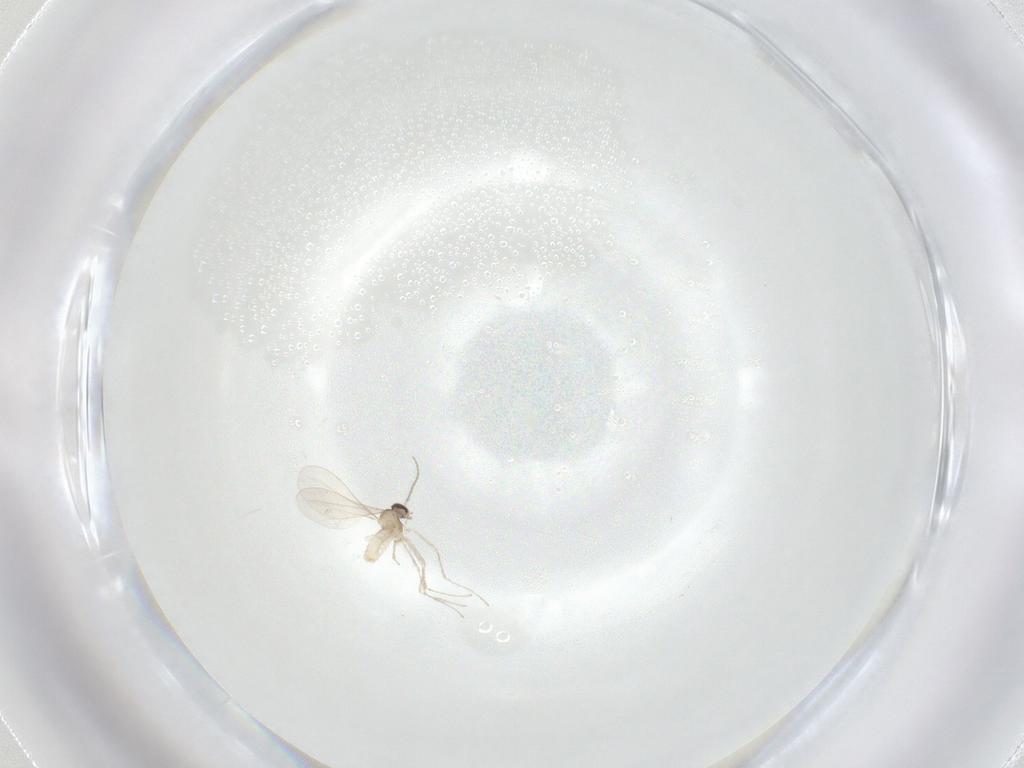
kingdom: Animalia
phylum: Arthropoda
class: Insecta
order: Diptera
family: Cecidomyiidae
